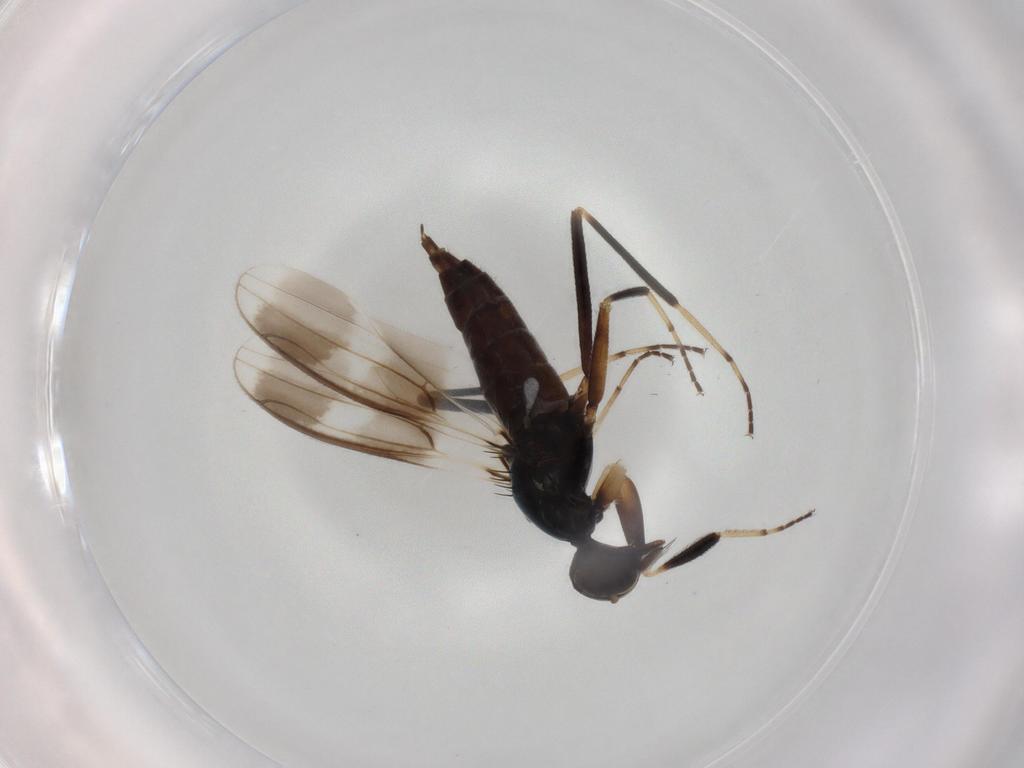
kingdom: Animalia
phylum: Arthropoda
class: Insecta
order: Diptera
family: Hybotidae
